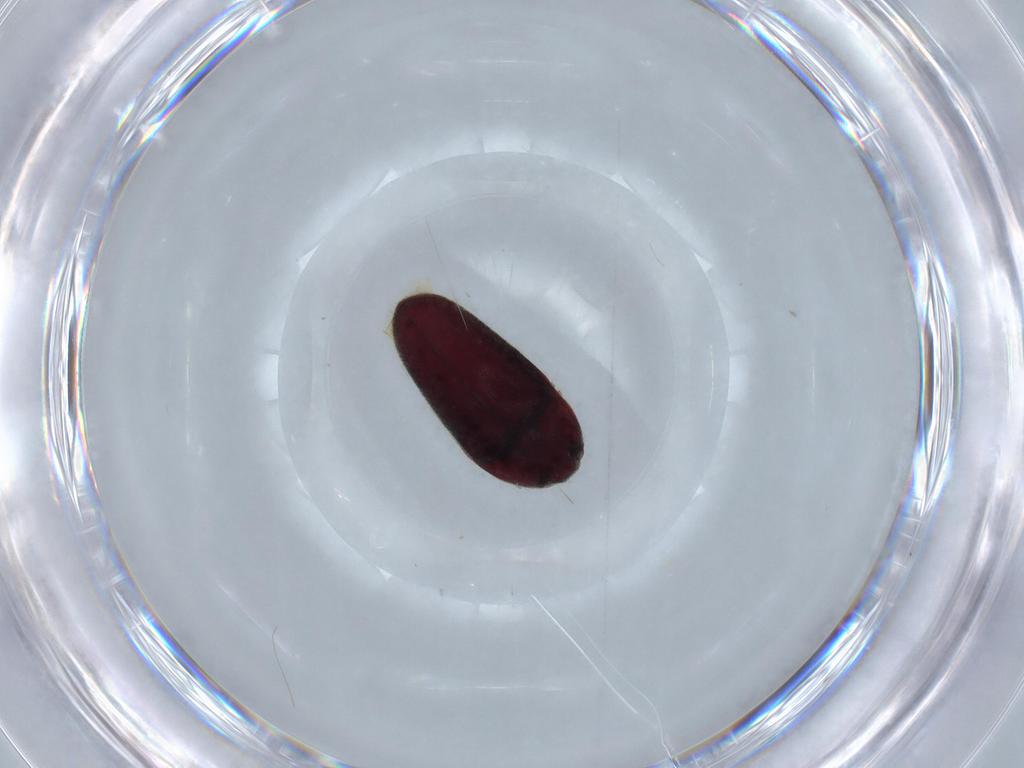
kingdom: Animalia
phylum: Arthropoda
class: Insecta
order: Coleoptera
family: Throscidae
